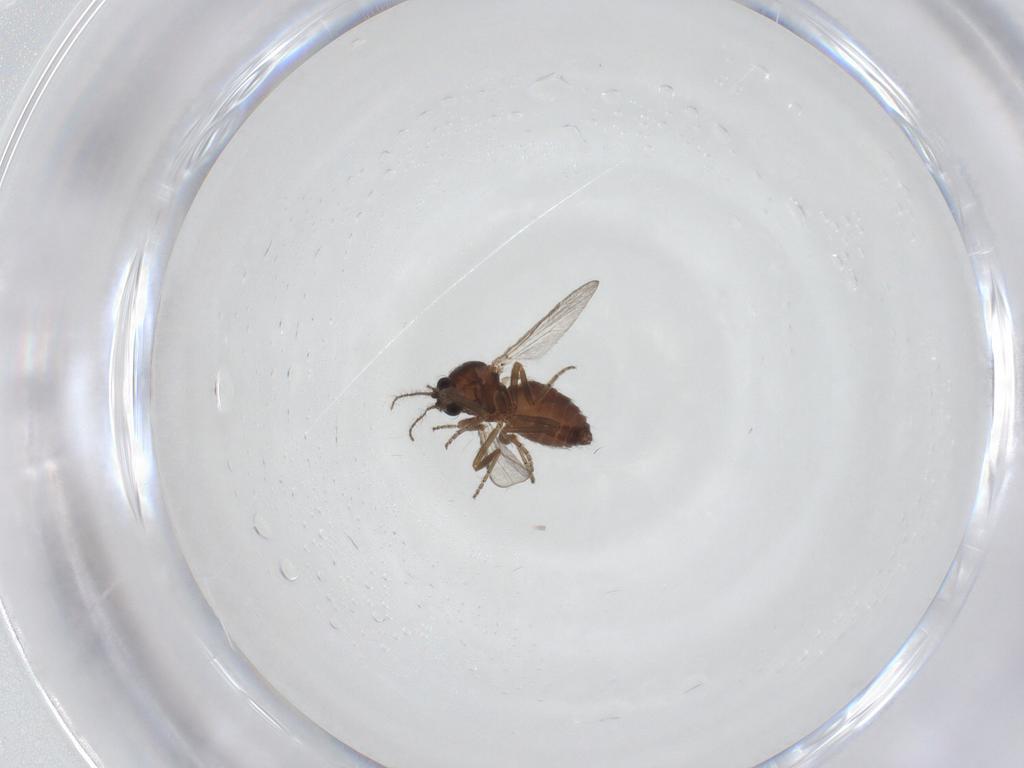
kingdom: Animalia
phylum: Arthropoda
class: Insecta
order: Diptera
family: Ceratopogonidae
